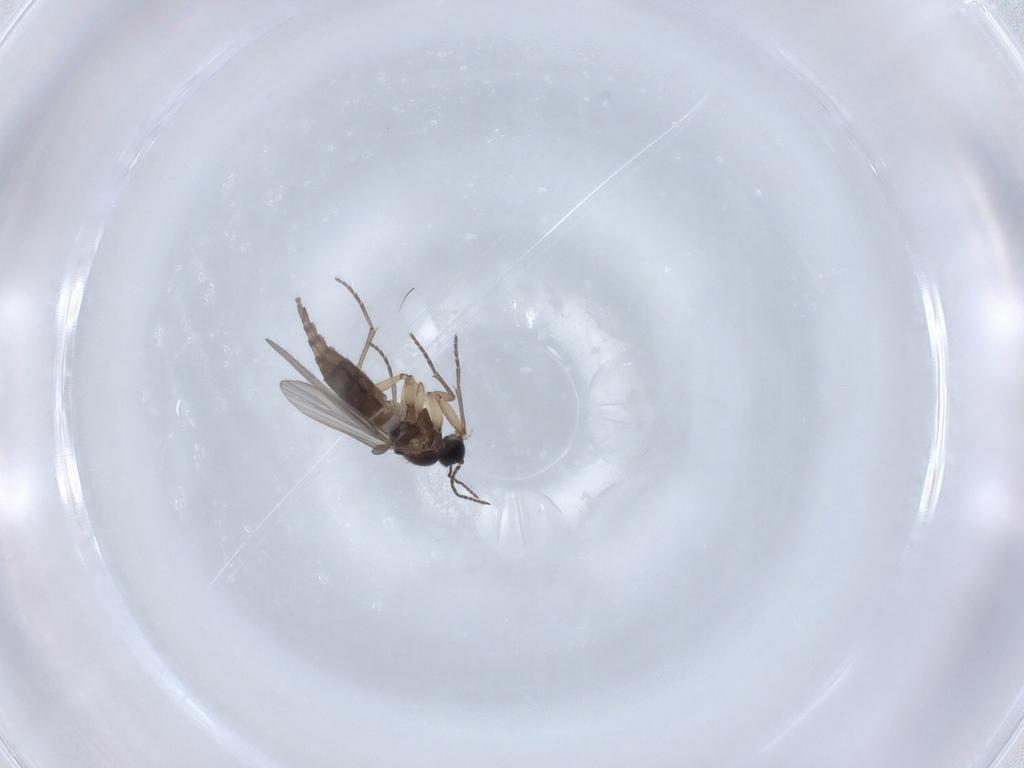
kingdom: Animalia
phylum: Arthropoda
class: Insecta
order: Diptera
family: Sciaridae
